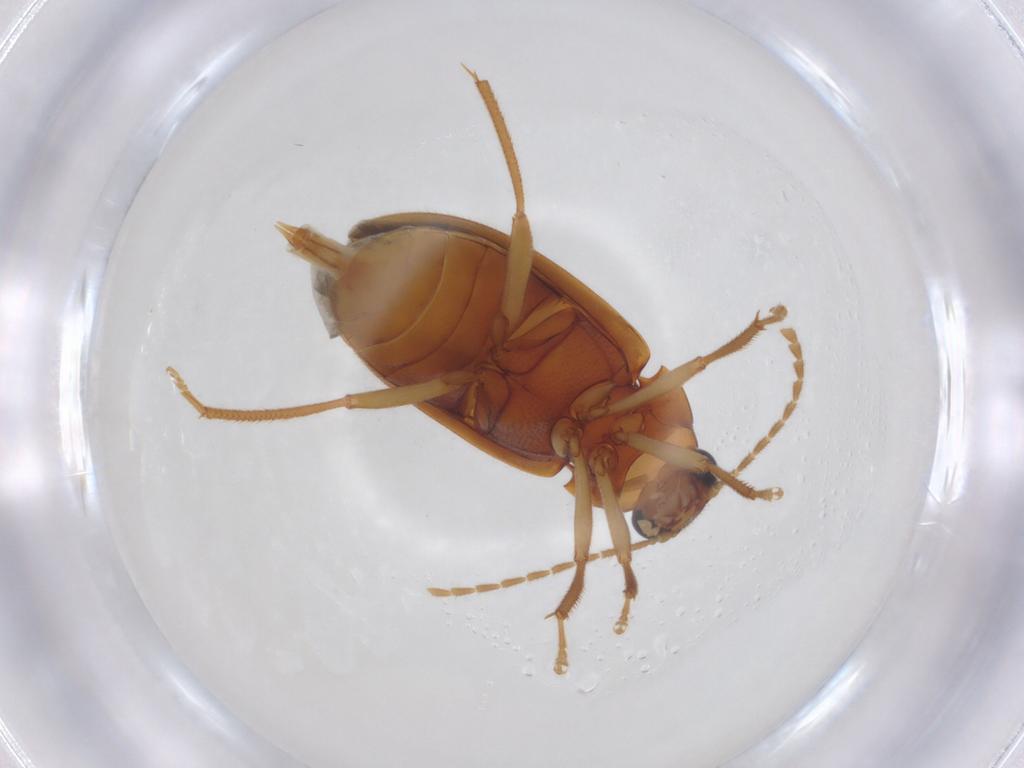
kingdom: Animalia
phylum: Arthropoda
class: Insecta
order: Coleoptera
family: Ptilodactylidae
